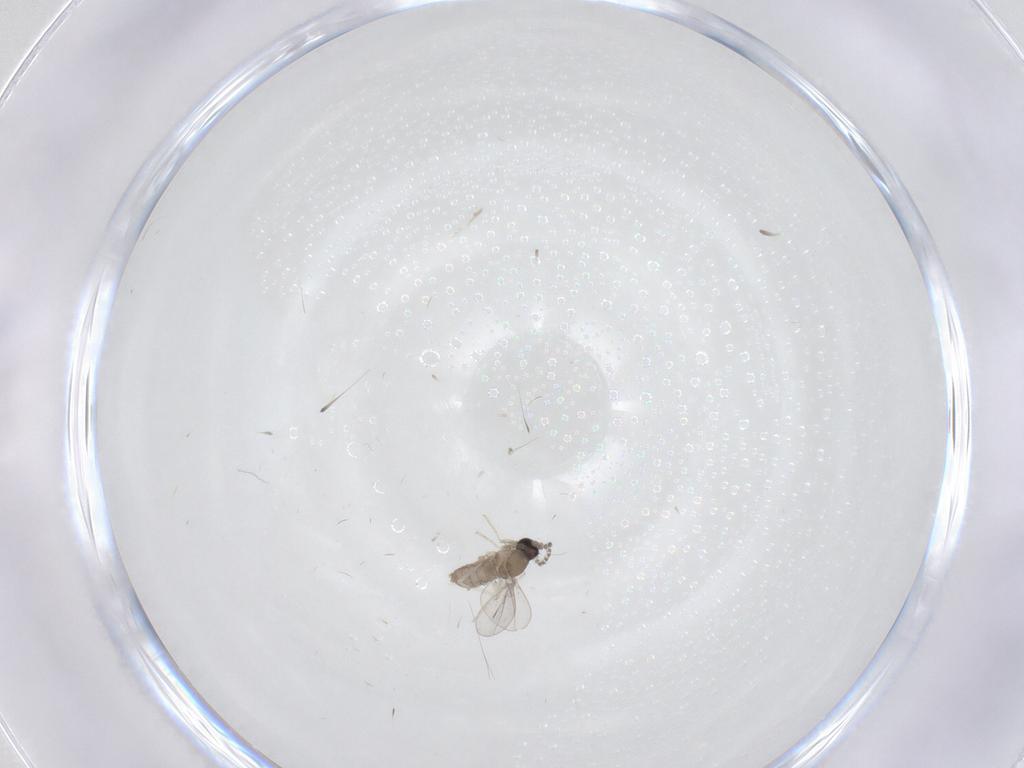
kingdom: Animalia
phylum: Arthropoda
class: Insecta
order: Diptera
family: Cecidomyiidae
